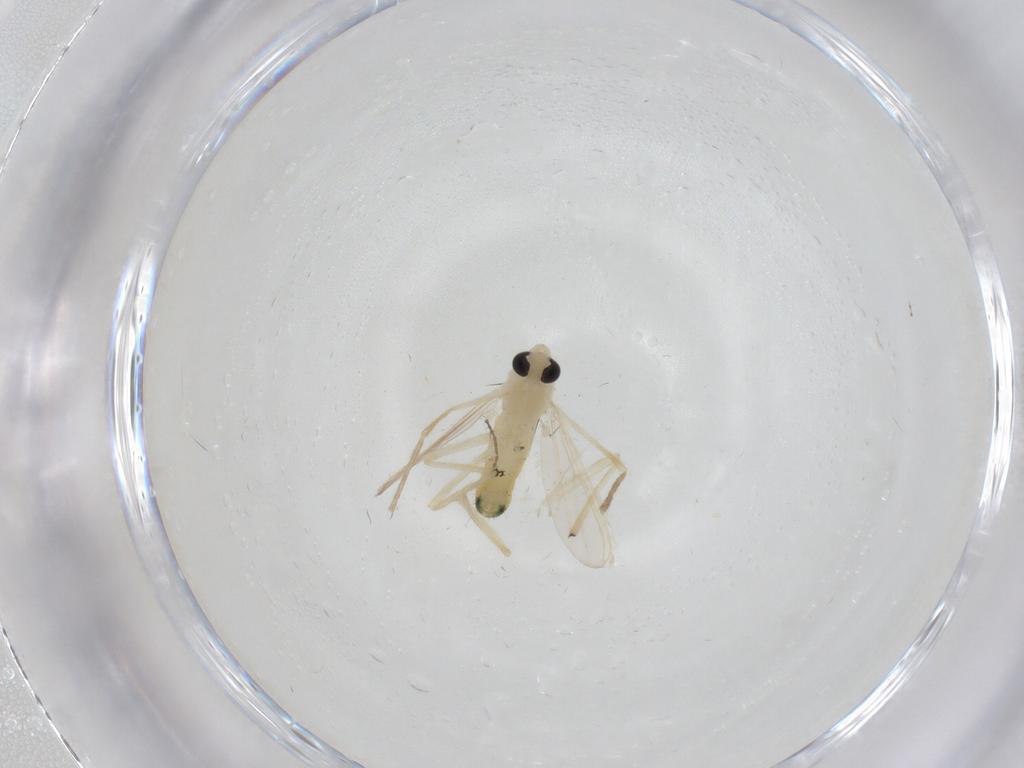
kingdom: Animalia
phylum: Arthropoda
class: Insecta
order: Diptera
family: Chironomidae
